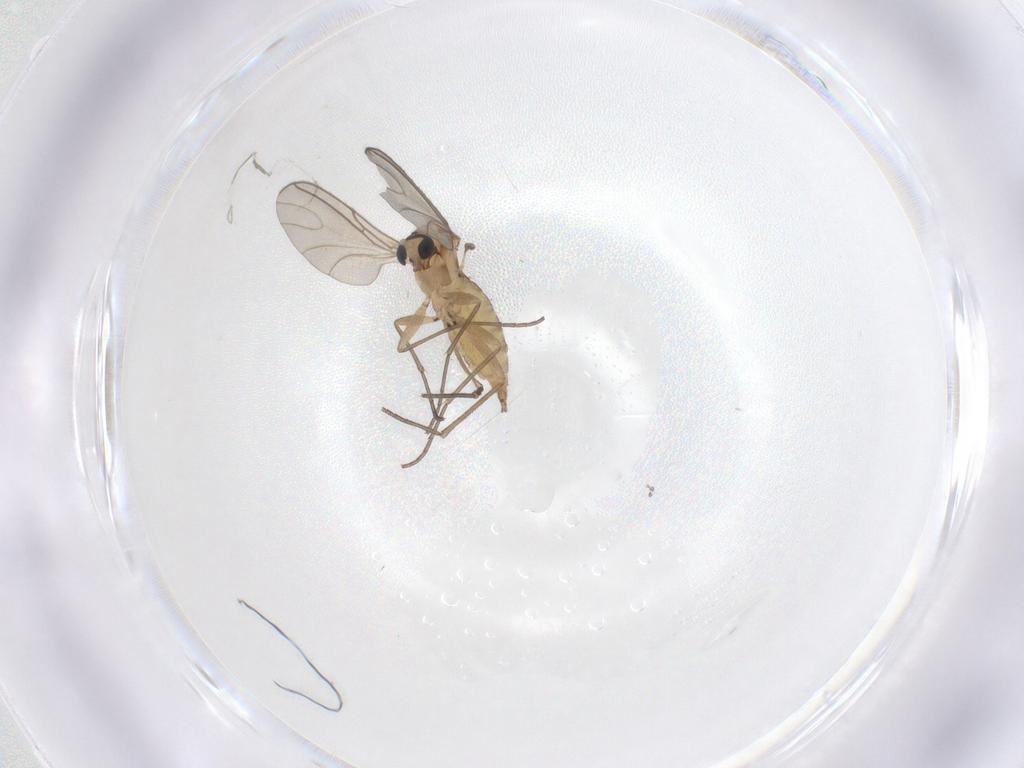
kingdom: Animalia
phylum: Arthropoda
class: Insecta
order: Diptera
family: Sciaridae
